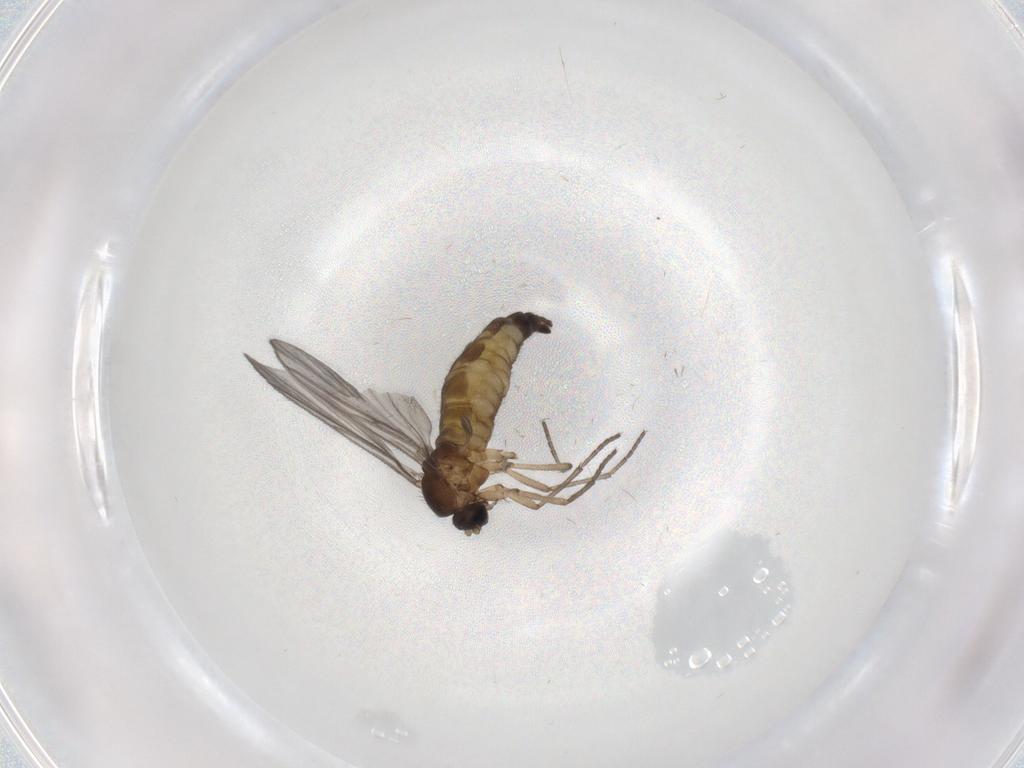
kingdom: Animalia
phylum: Arthropoda
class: Insecta
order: Diptera
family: Sciaridae
